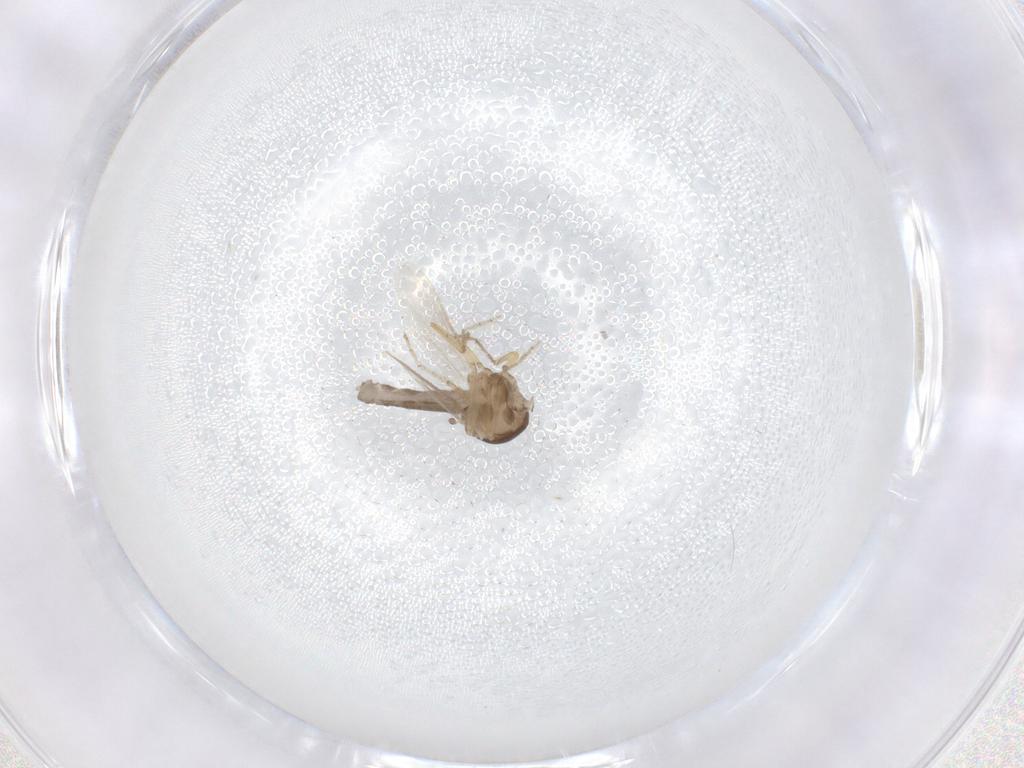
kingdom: Animalia
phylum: Arthropoda
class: Insecta
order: Diptera
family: Ceratopogonidae
